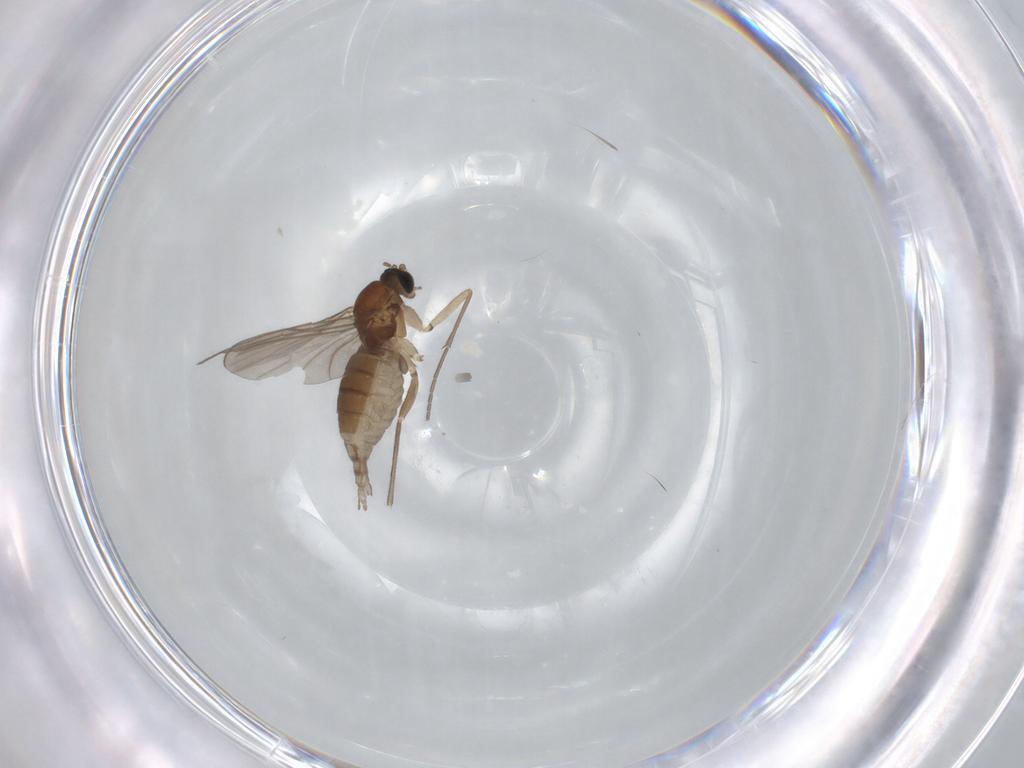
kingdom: Animalia
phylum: Arthropoda
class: Insecta
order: Diptera
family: Sciaridae
